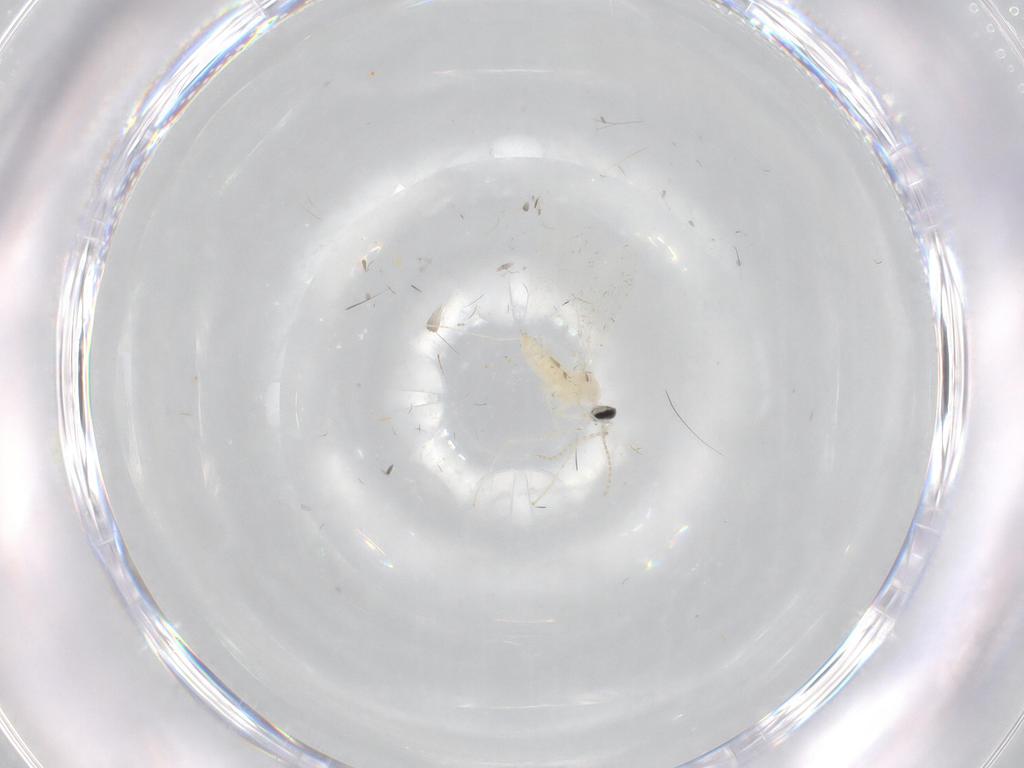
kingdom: Animalia
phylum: Arthropoda
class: Insecta
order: Diptera
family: Cecidomyiidae
